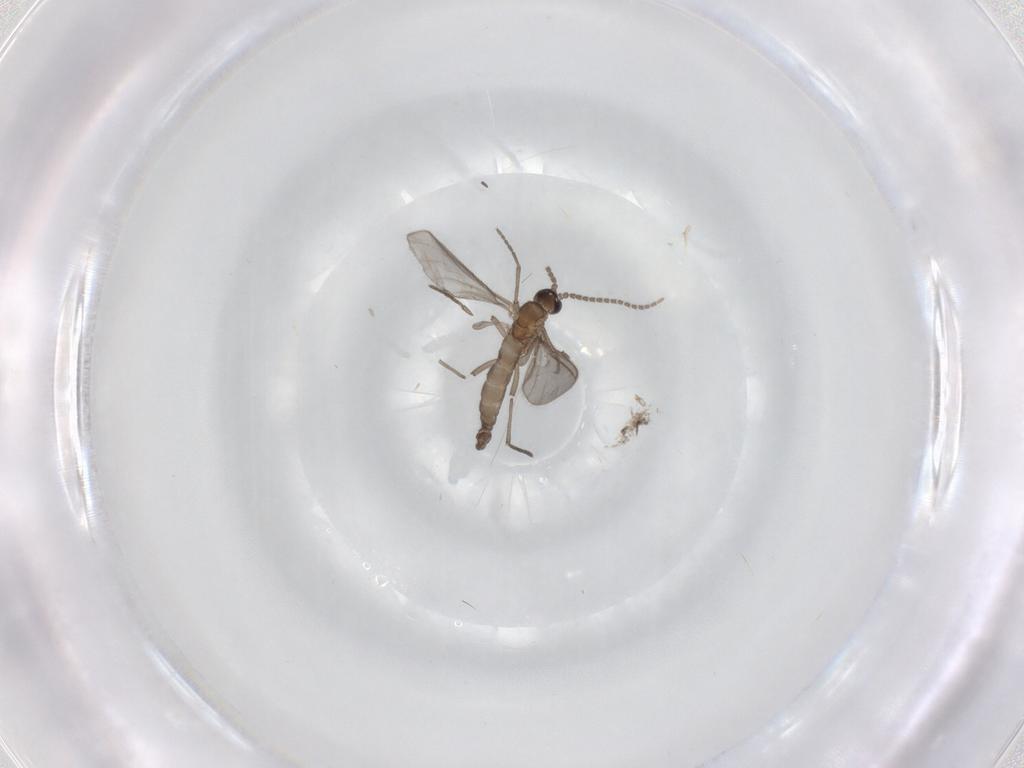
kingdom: Animalia
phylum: Arthropoda
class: Insecta
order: Diptera
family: Sciaridae
